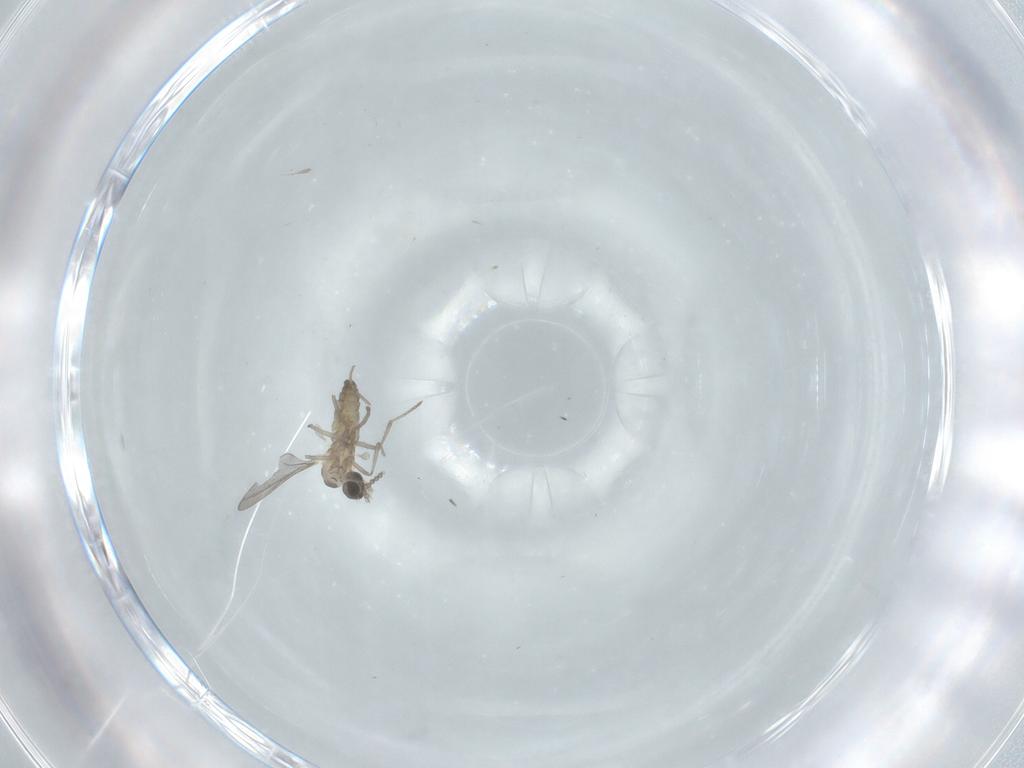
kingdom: Animalia
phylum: Arthropoda
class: Insecta
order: Diptera
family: Cecidomyiidae
